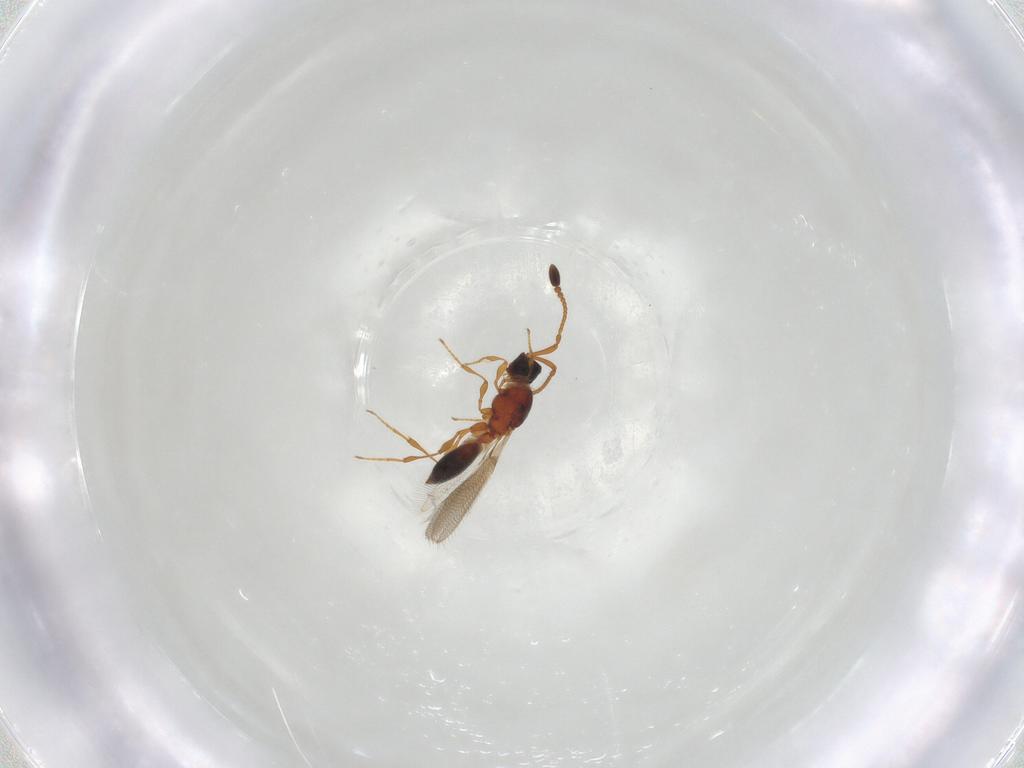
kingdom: Animalia
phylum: Arthropoda
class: Insecta
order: Hymenoptera
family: Diapriidae
